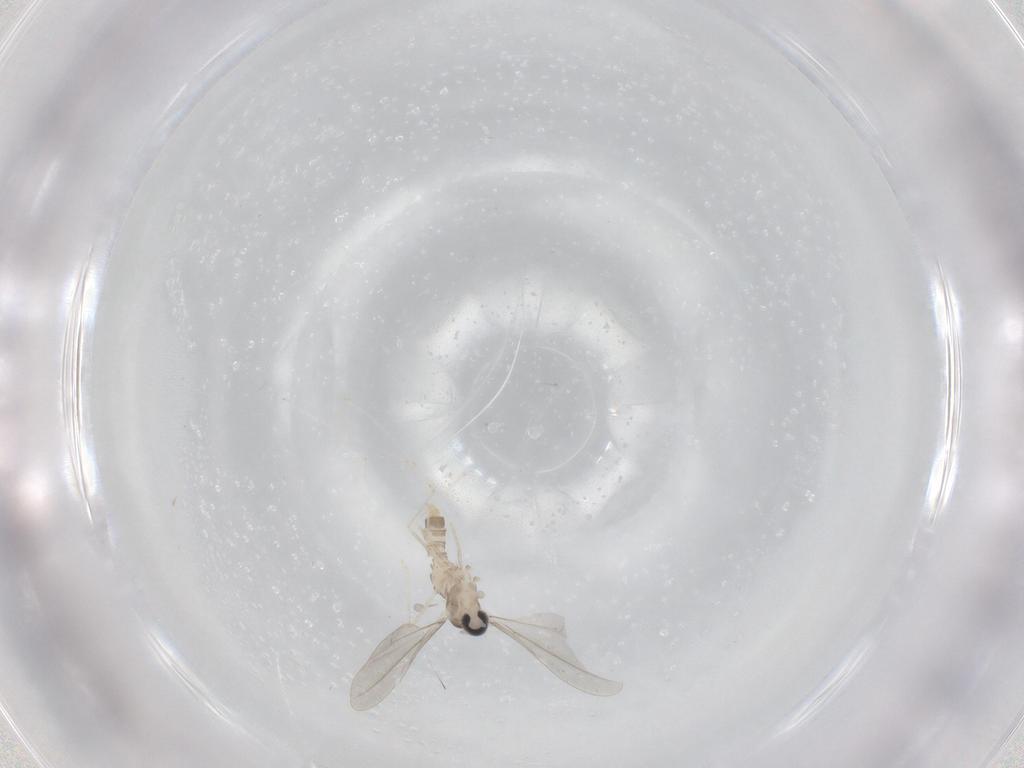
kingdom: Animalia
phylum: Arthropoda
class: Insecta
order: Diptera
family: Cecidomyiidae
